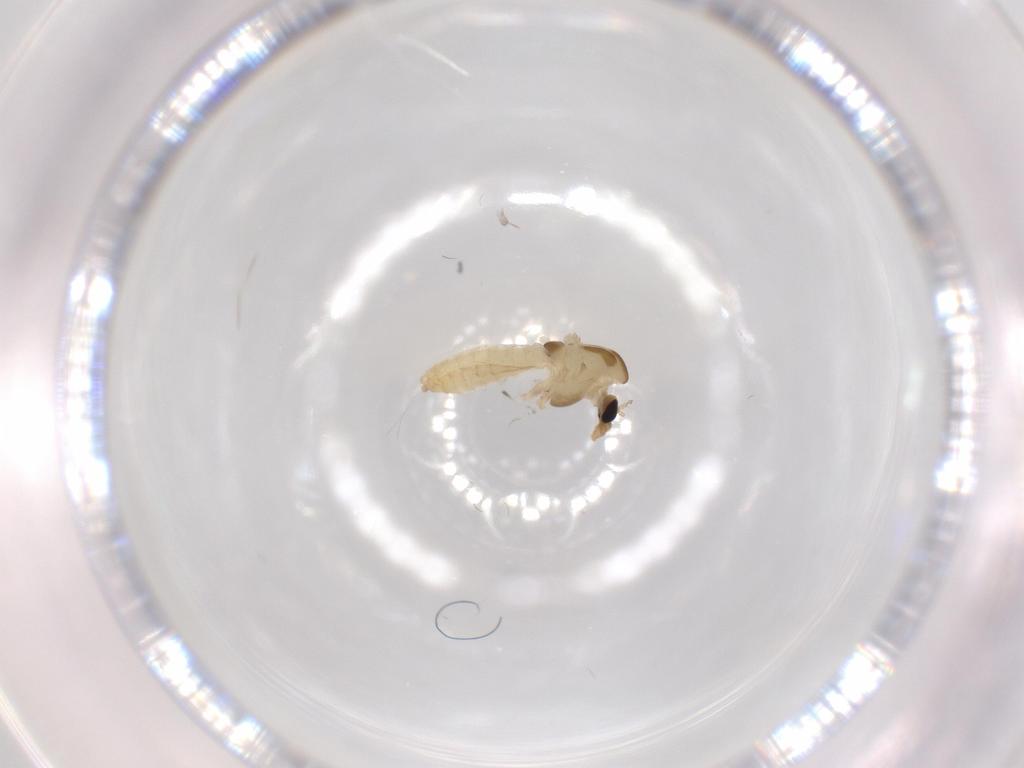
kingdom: Animalia
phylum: Arthropoda
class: Insecta
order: Diptera
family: Chironomidae
